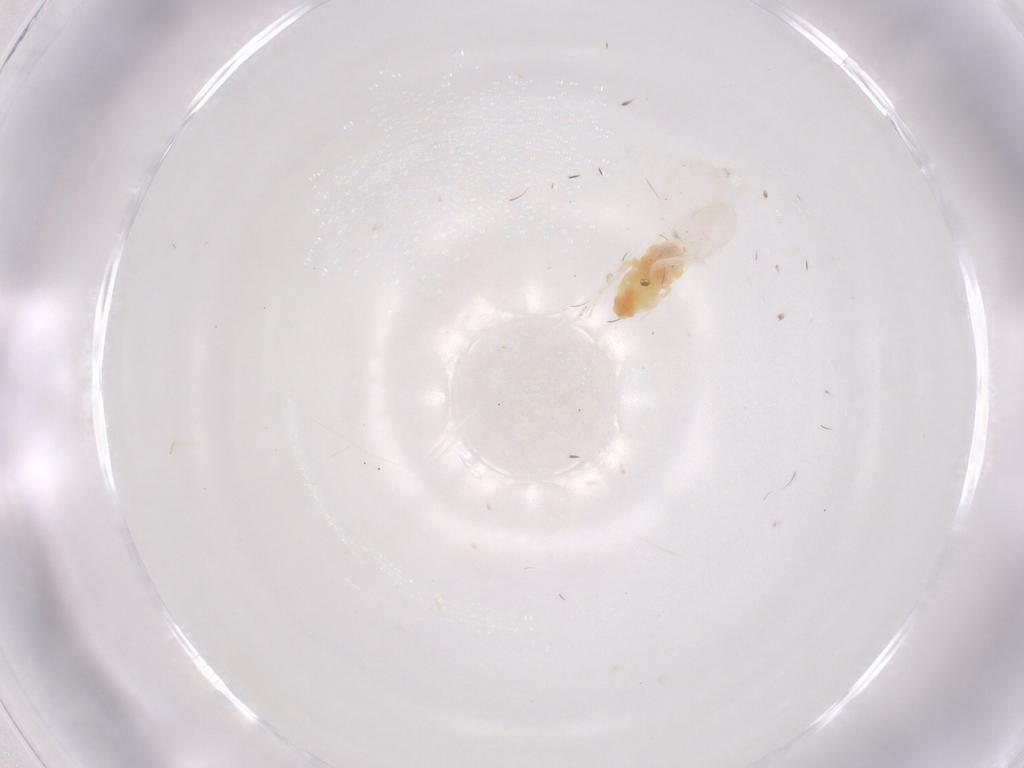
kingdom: Animalia
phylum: Arthropoda
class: Insecta
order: Hemiptera
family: Aleyrodidae
